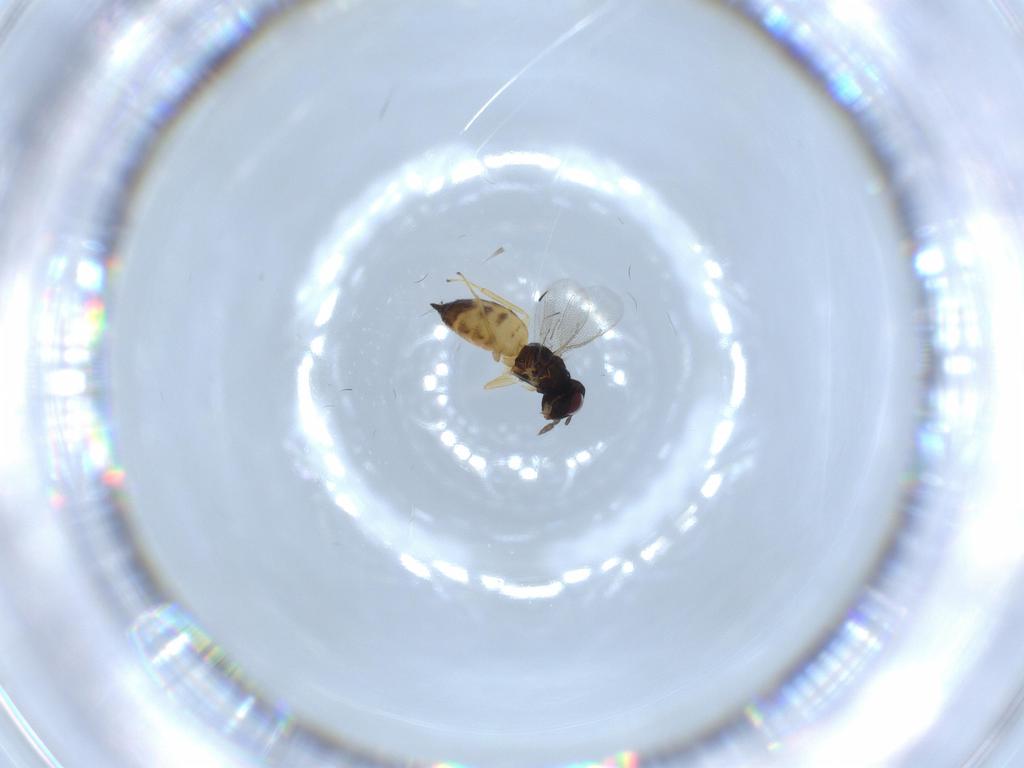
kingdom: Animalia
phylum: Arthropoda
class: Insecta
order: Hymenoptera
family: Eulophidae
